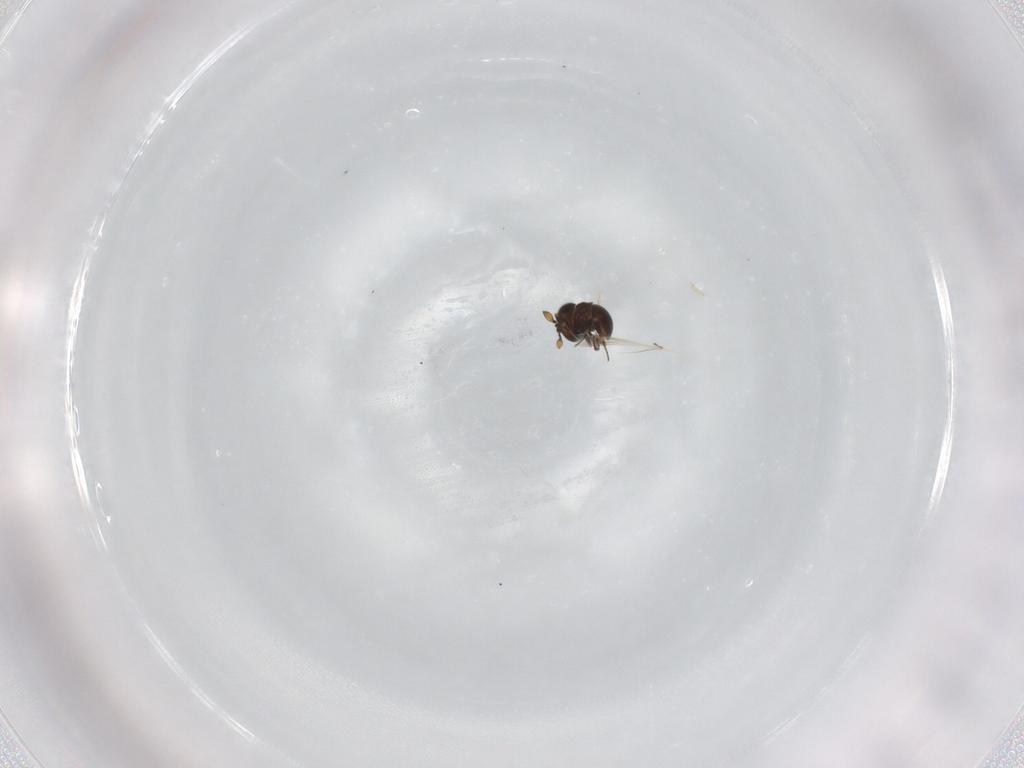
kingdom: Animalia
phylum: Arthropoda
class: Insecta
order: Hymenoptera
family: Scelionidae
